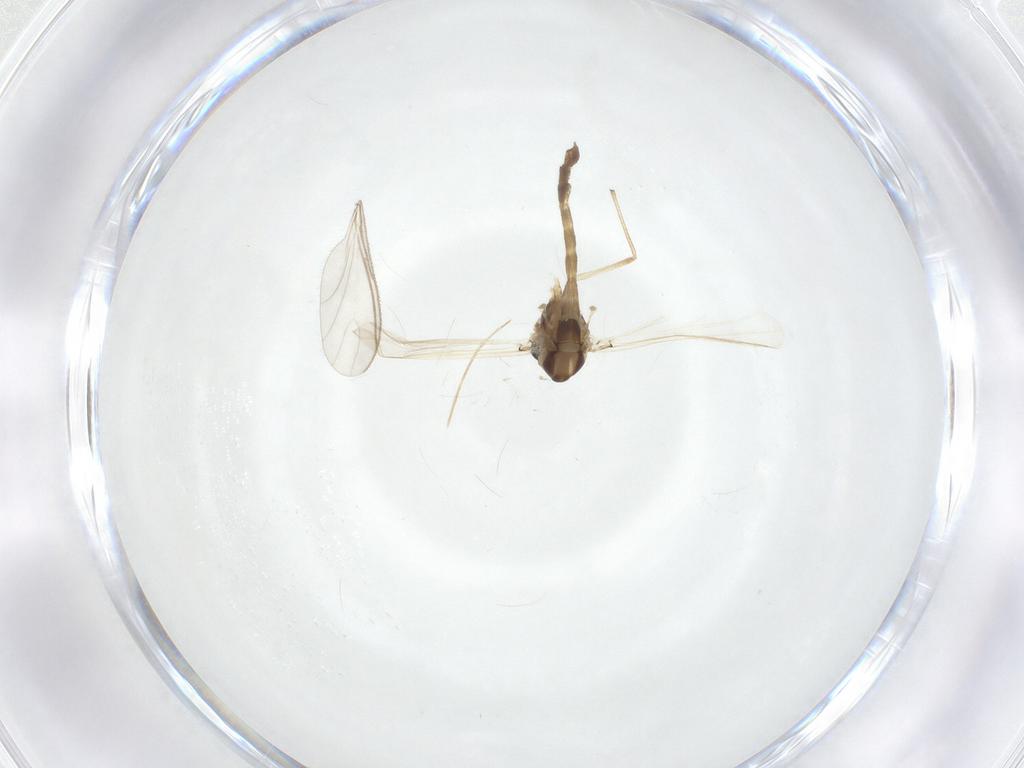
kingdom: Animalia
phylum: Arthropoda
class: Insecta
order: Diptera
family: Chironomidae
